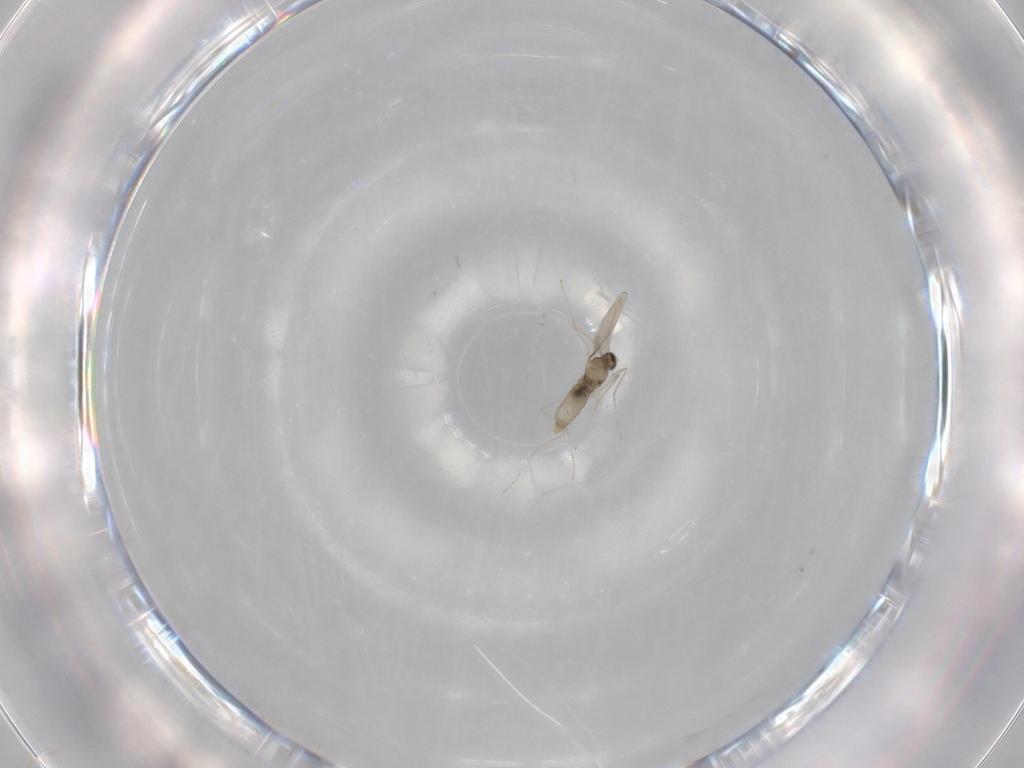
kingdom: Animalia
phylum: Arthropoda
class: Insecta
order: Diptera
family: Cecidomyiidae
